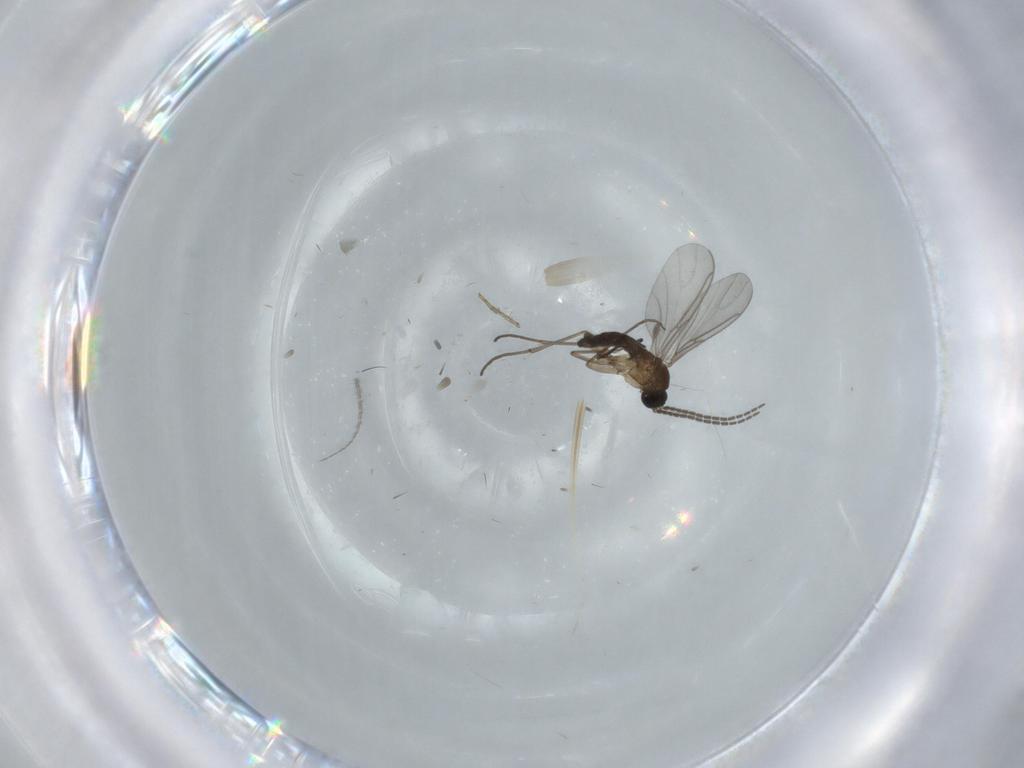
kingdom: Animalia
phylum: Arthropoda
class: Insecta
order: Diptera
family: Sciaridae
